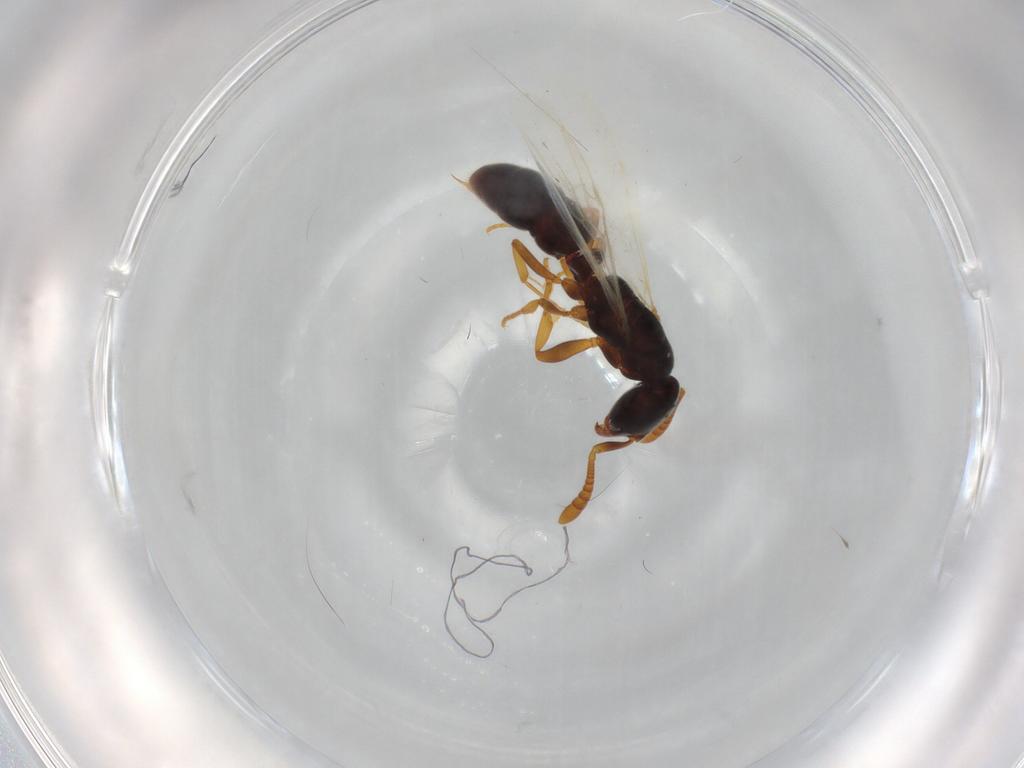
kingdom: Animalia
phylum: Arthropoda
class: Insecta
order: Hymenoptera
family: Formicidae
